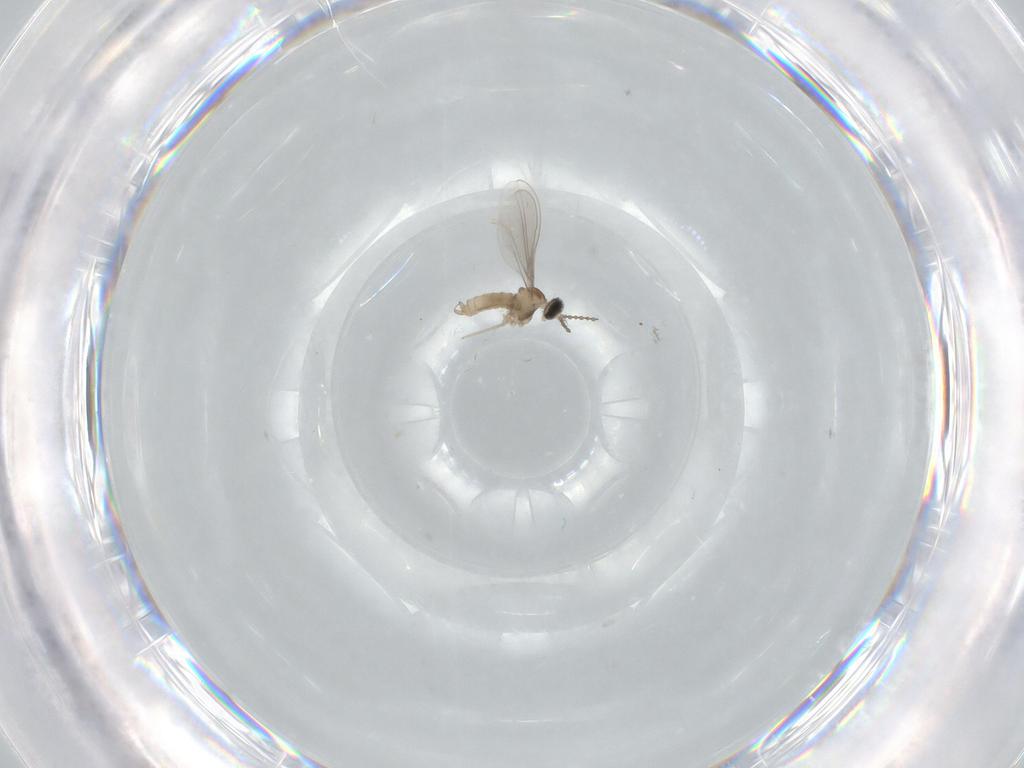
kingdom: Animalia
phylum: Arthropoda
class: Insecta
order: Diptera
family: Cecidomyiidae
